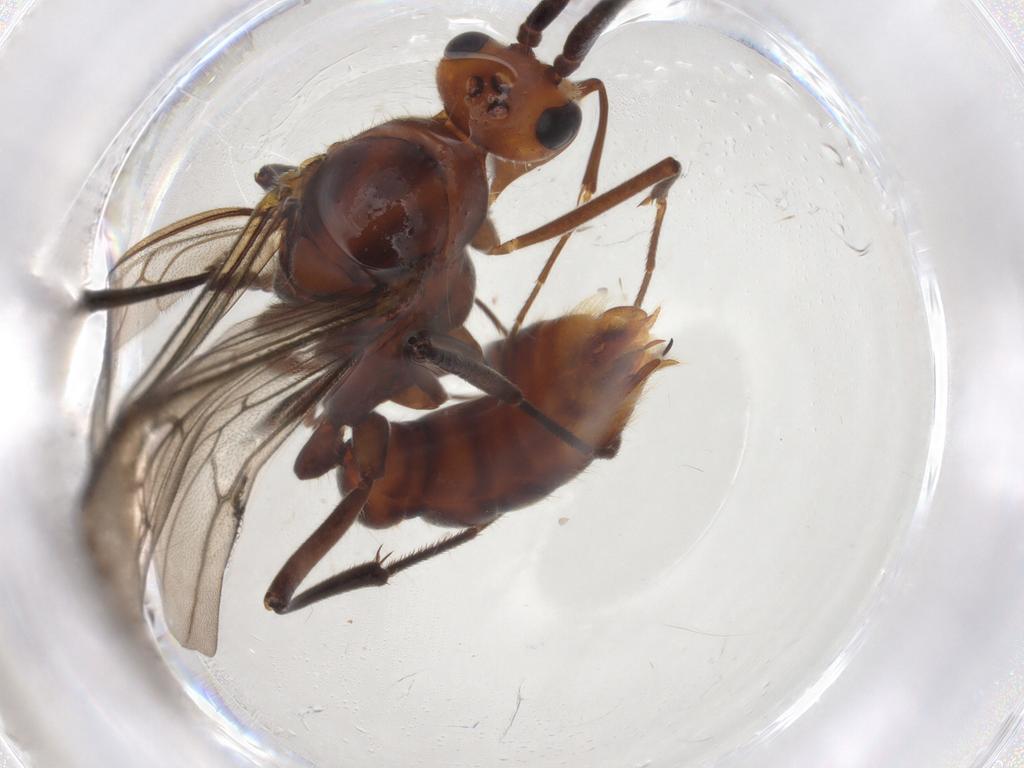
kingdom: Animalia
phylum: Arthropoda
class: Insecta
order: Hymenoptera
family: Formicidae
